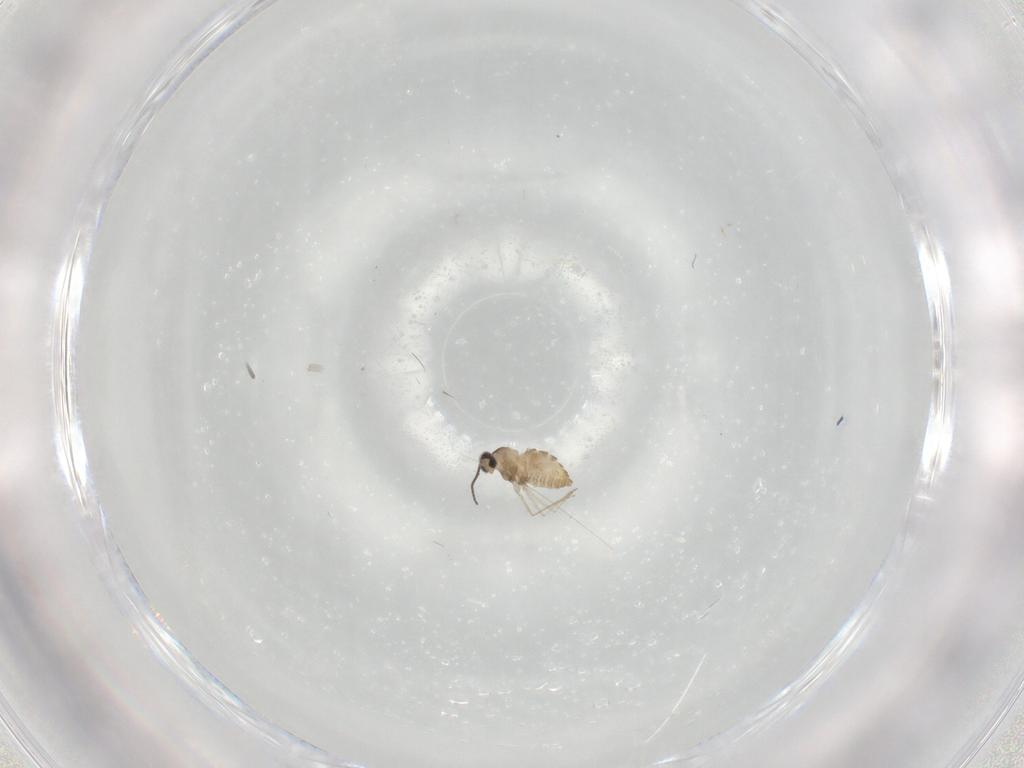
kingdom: Animalia
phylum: Arthropoda
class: Insecta
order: Diptera
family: Cecidomyiidae
